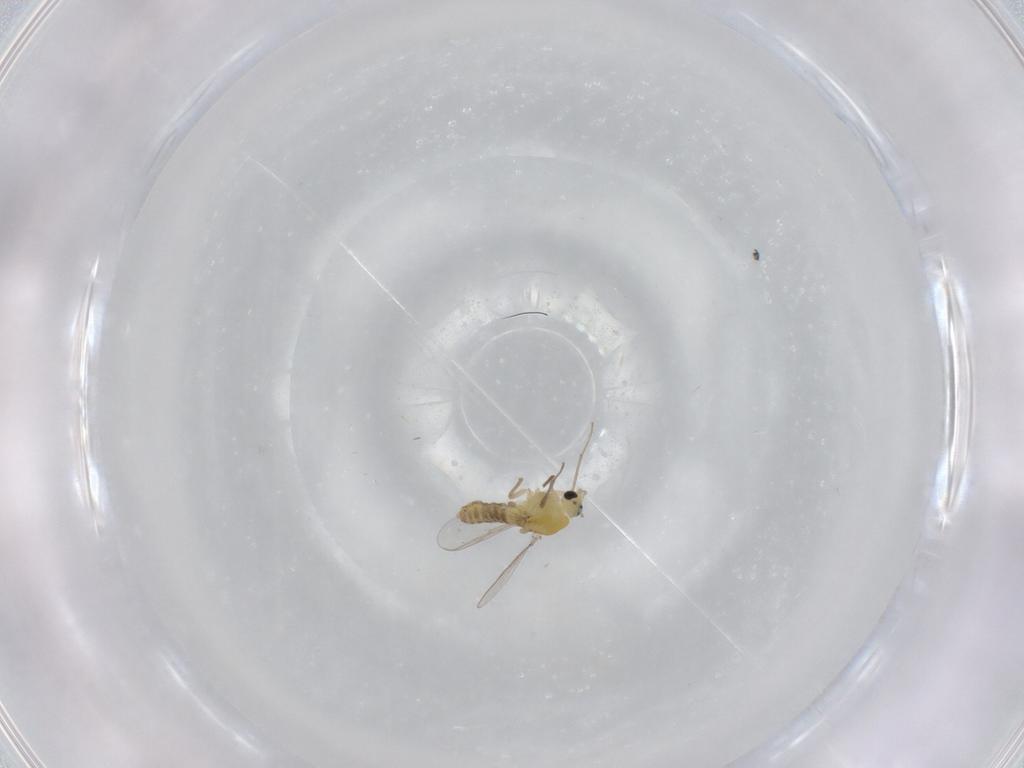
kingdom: Animalia
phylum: Arthropoda
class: Insecta
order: Diptera
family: Chironomidae
